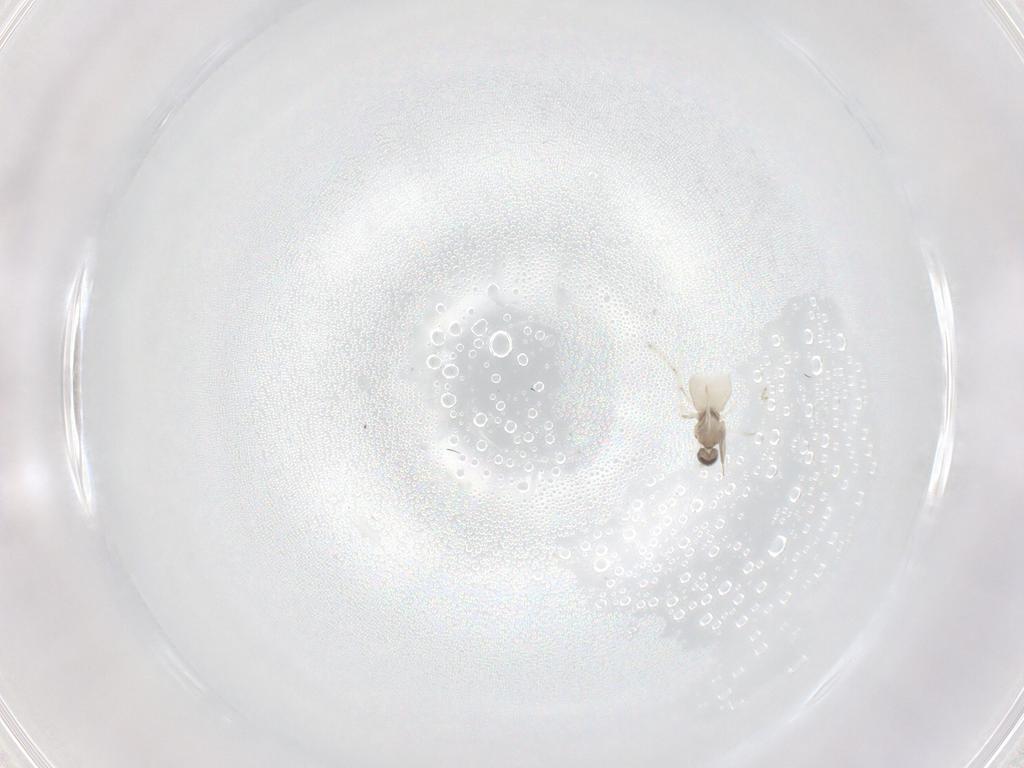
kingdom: Animalia
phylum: Arthropoda
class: Insecta
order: Diptera
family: Cecidomyiidae
